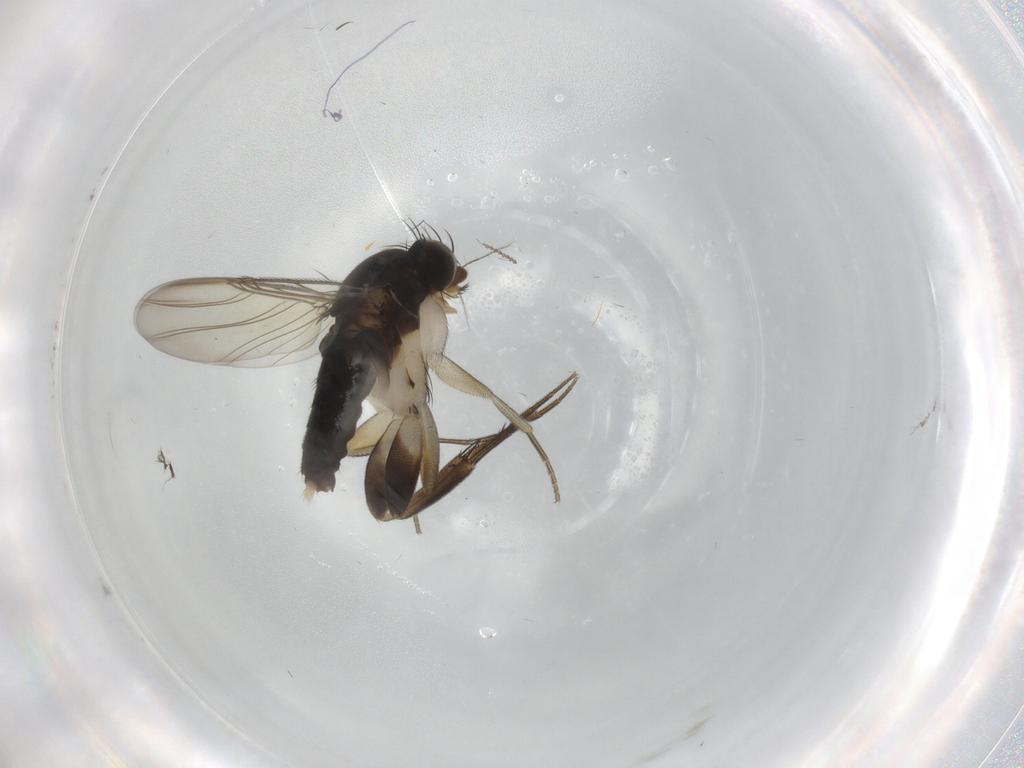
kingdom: Animalia
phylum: Arthropoda
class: Insecta
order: Diptera
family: Phoridae
